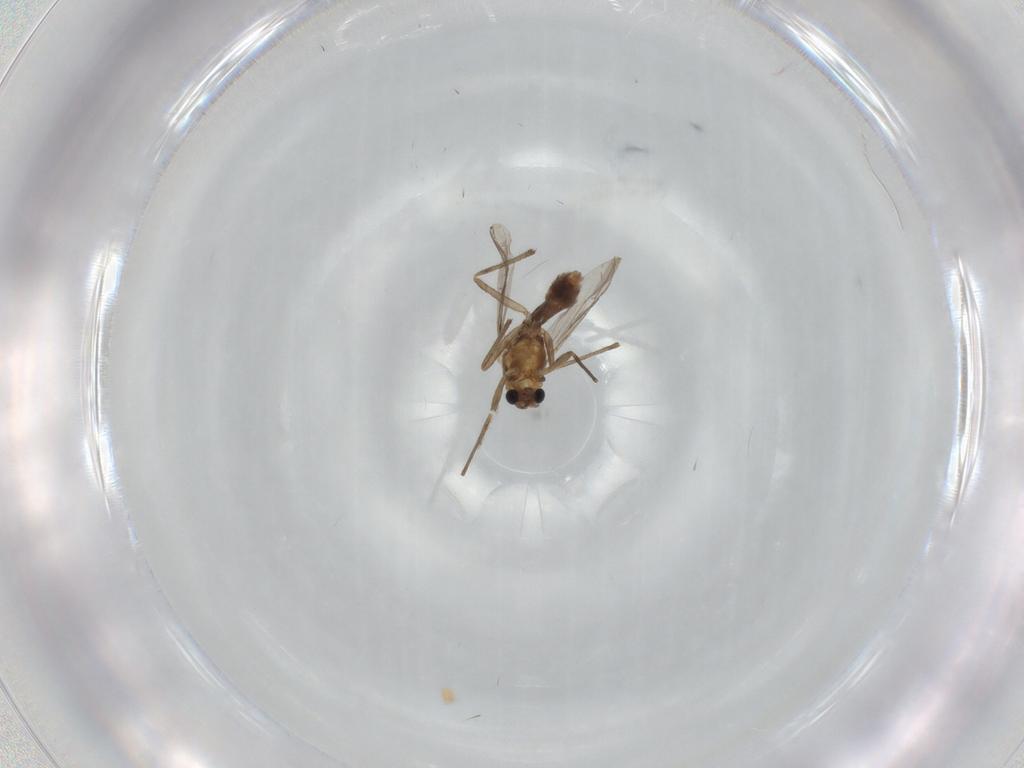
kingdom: Animalia
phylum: Arthropoda
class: Insecta
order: Diptera
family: Chironomidae
